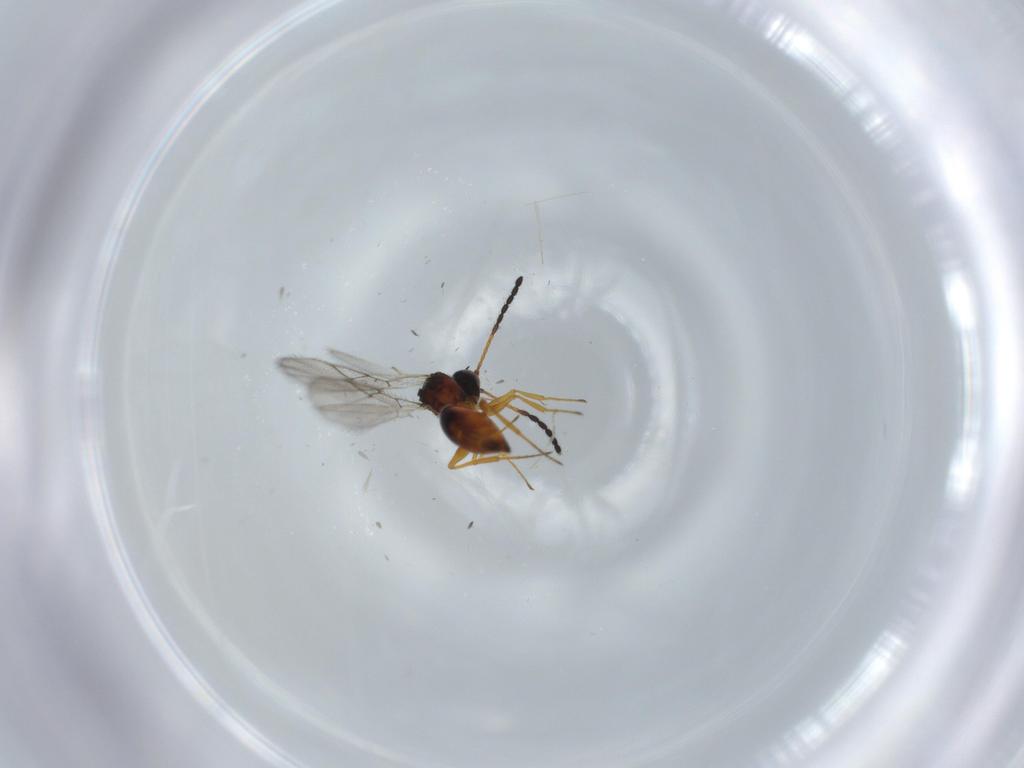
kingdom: Animalia
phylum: Arthropoda
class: Insecta
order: Hymenoptera
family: Figitidae
